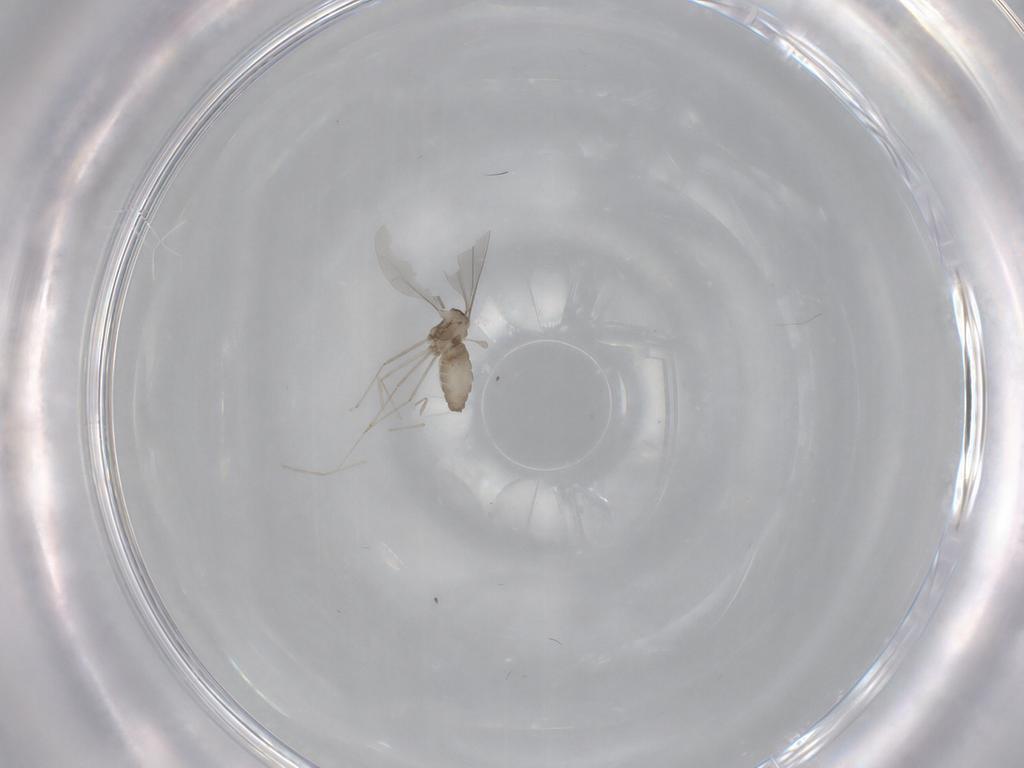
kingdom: Animalia
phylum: Arthropoda
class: Insecta
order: Diptera
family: Cecidomyiidae
